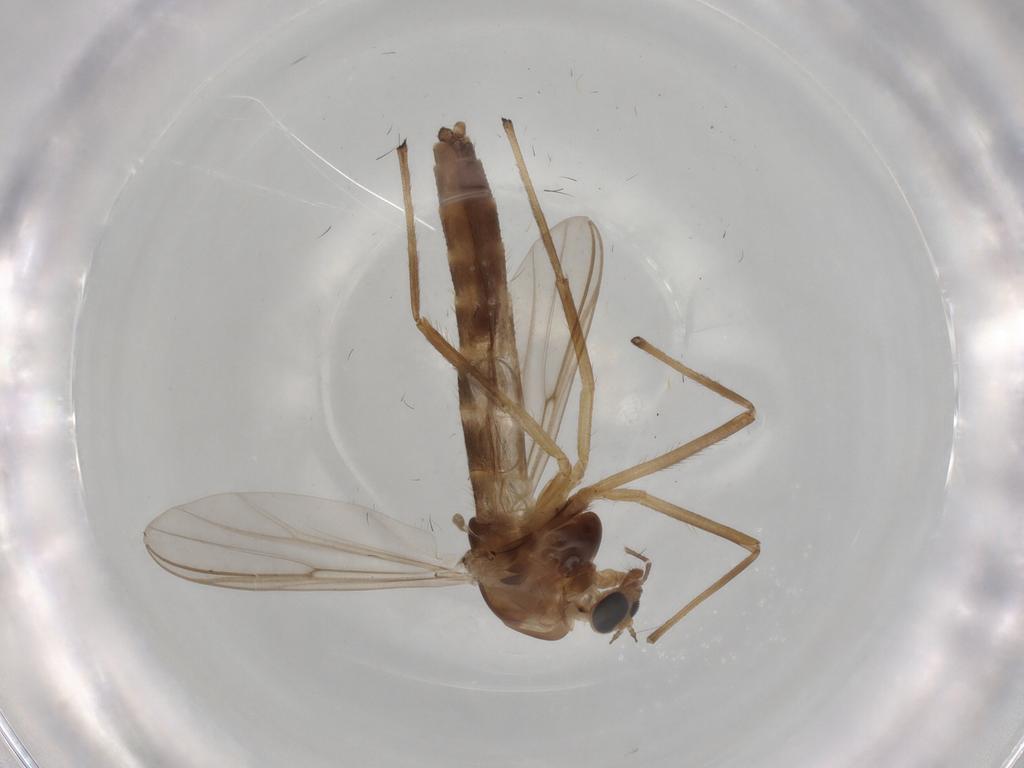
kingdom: Animalia
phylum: Arthropoda
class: Insecta
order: Diptera
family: Chironomidae
